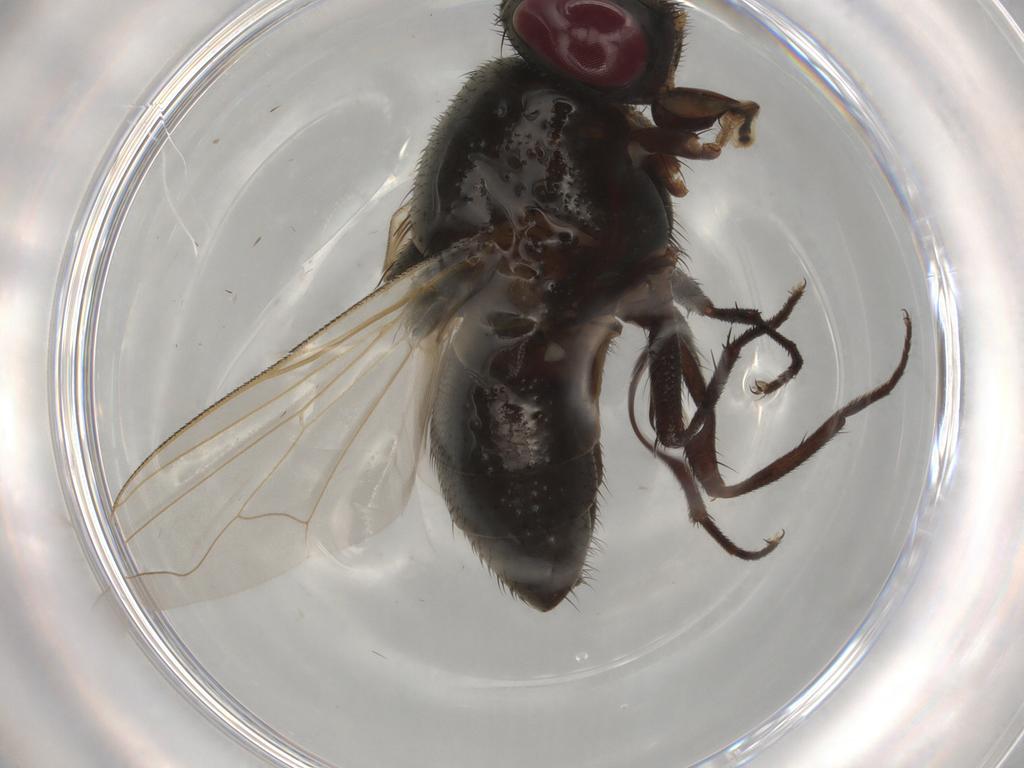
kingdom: Animalia
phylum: Arthropoda
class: Insecta
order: Diptera
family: Muscidae
